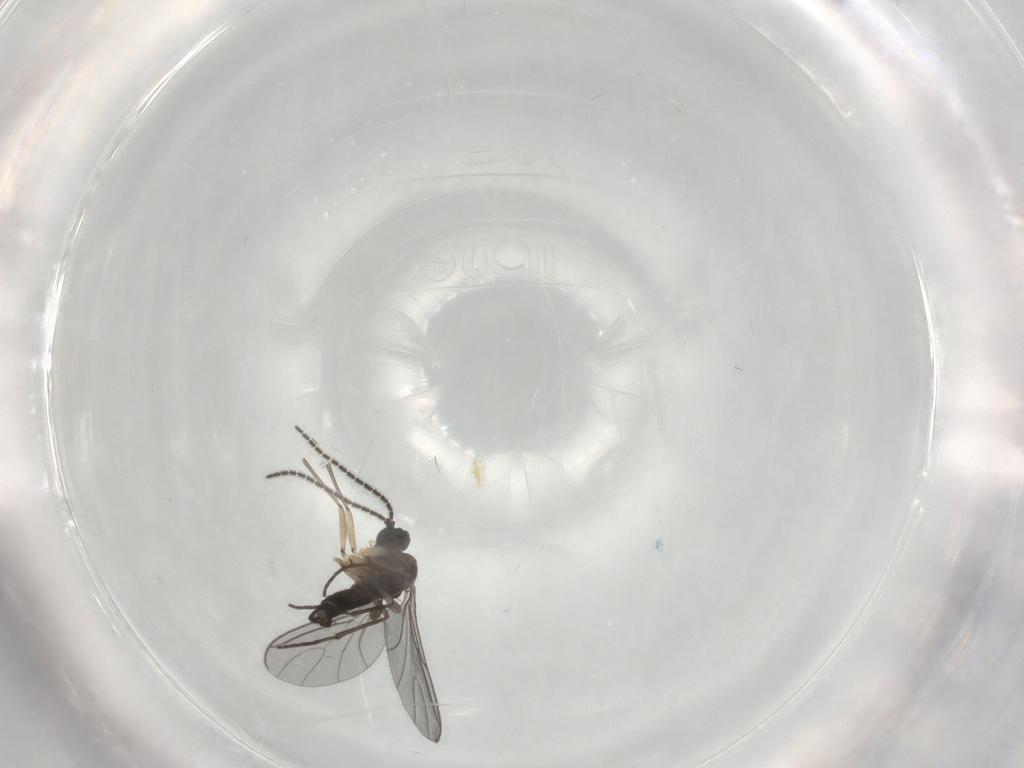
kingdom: Animalia
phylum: Arthropoda
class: Insecta
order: Diptera
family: Sciaridae
